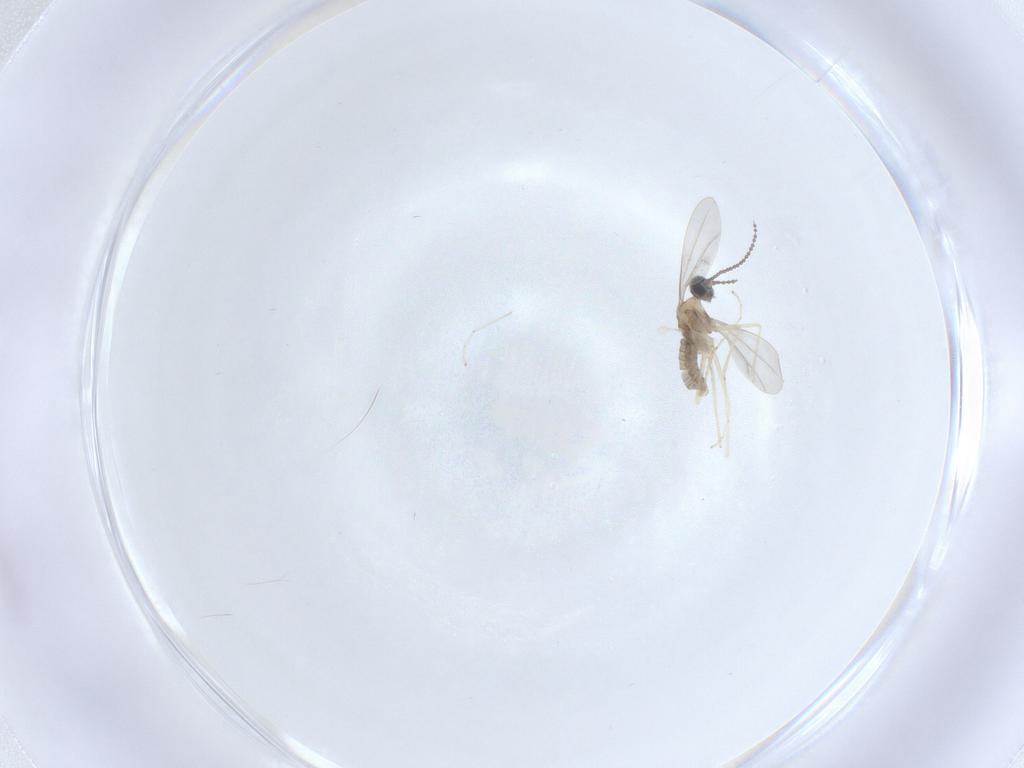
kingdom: Animalia
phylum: Arthropoda
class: Insecta
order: Diptera
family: Cecidomyiidae
